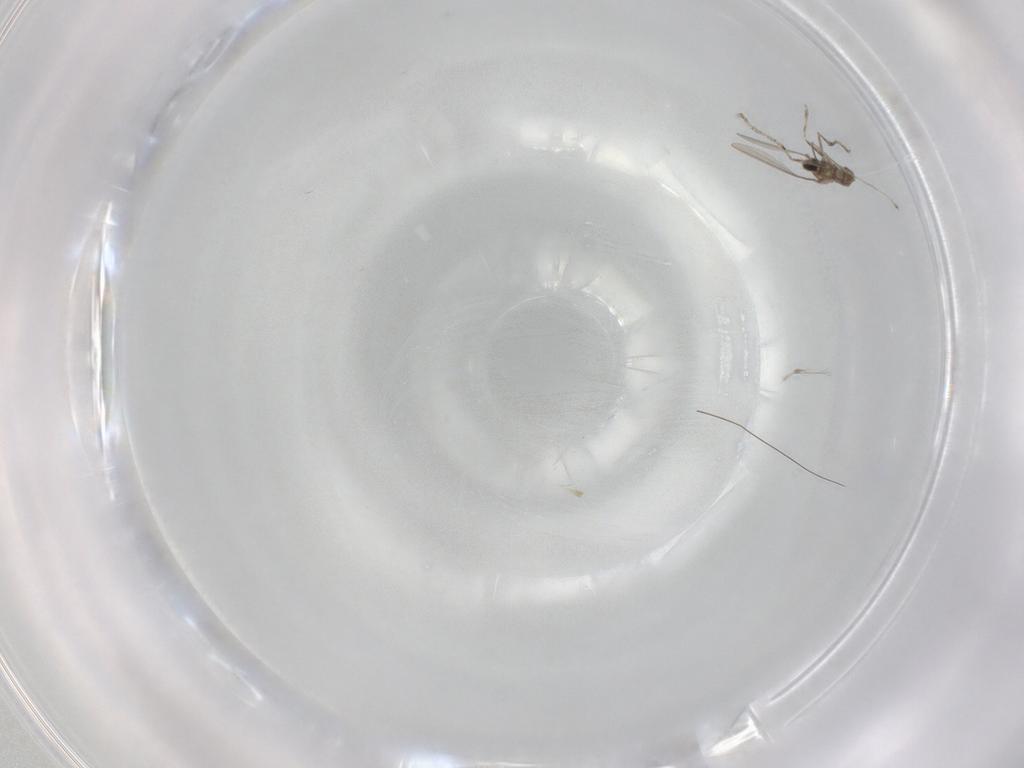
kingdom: Animalia
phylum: Arthropoda
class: Insecta
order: Diptera
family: Cecidomyiidae
